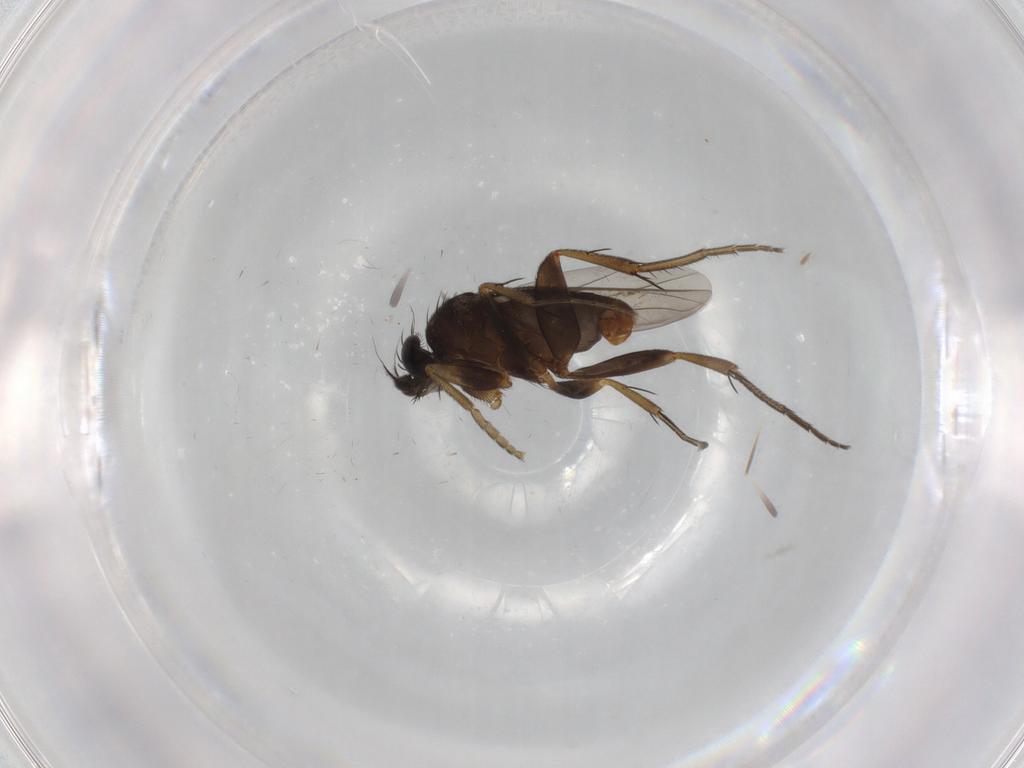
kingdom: Animalia
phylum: Arthropoda
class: Insecta
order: Diptera
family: Phoridae
